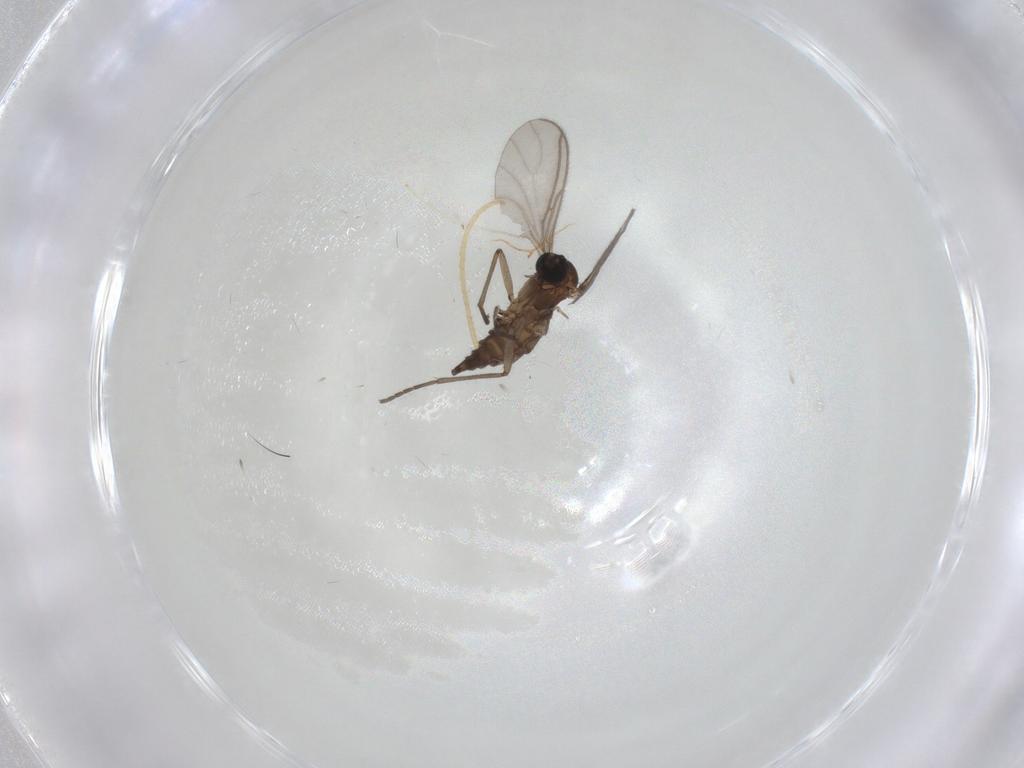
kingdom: Animalia
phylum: Arthropoda
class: Insecta
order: Diptera
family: Sciaridae
